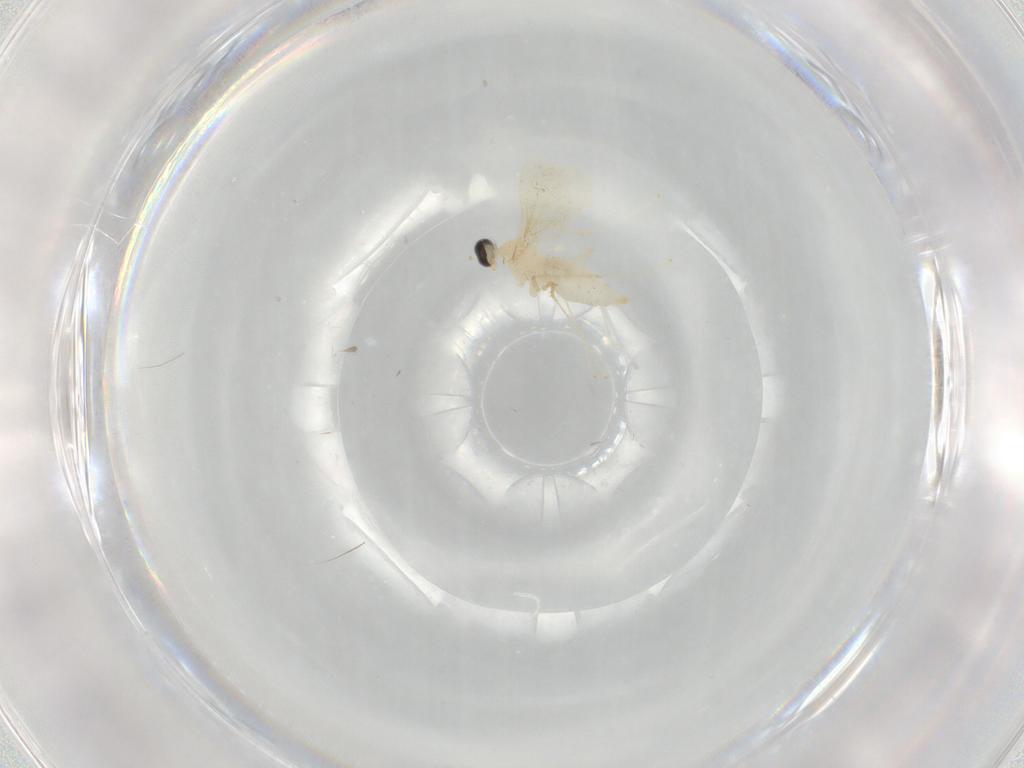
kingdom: Animalia
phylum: Arthropoda
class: Insecta
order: Diptera
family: Cecidomyiidae
